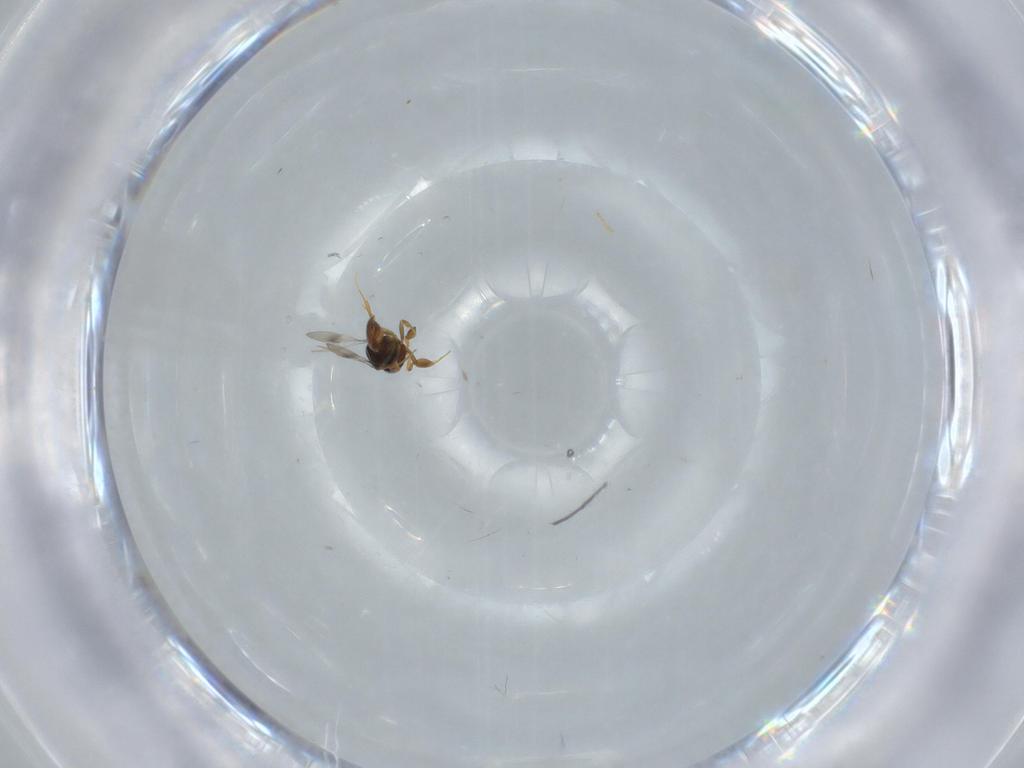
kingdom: Animalia
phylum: Arthropoda
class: Insecta
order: Hymenoptera
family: Scelionidae
